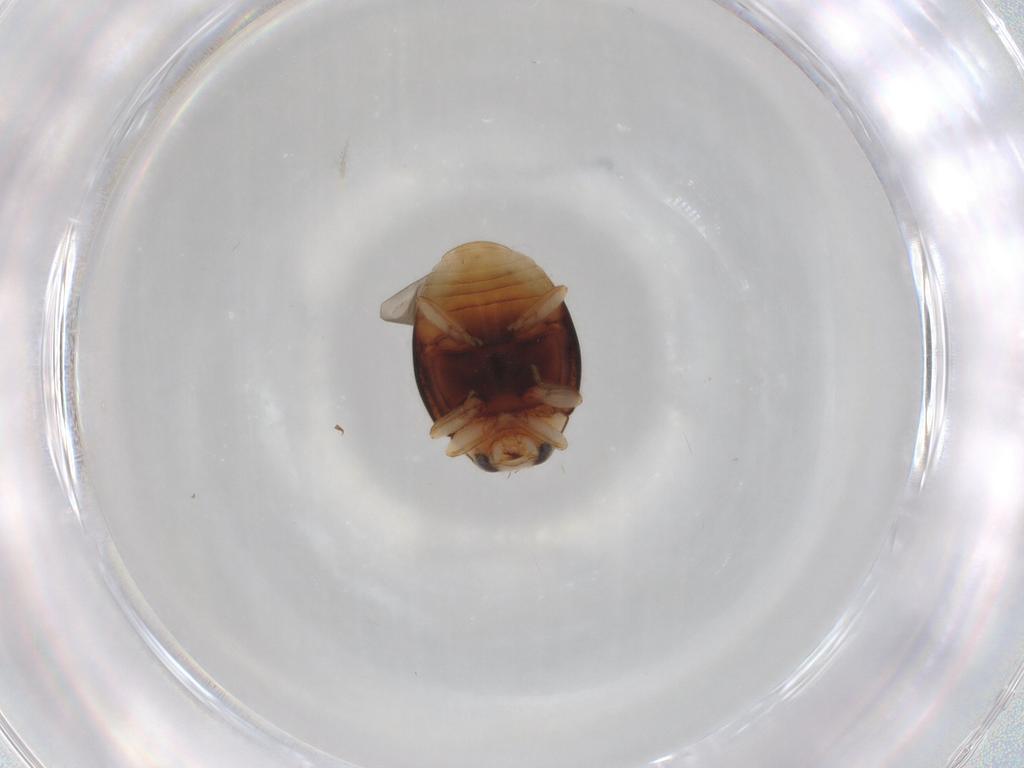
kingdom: Animalia
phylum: Arthropoda
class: Insecta
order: Coleoptera
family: Coccinellidae
